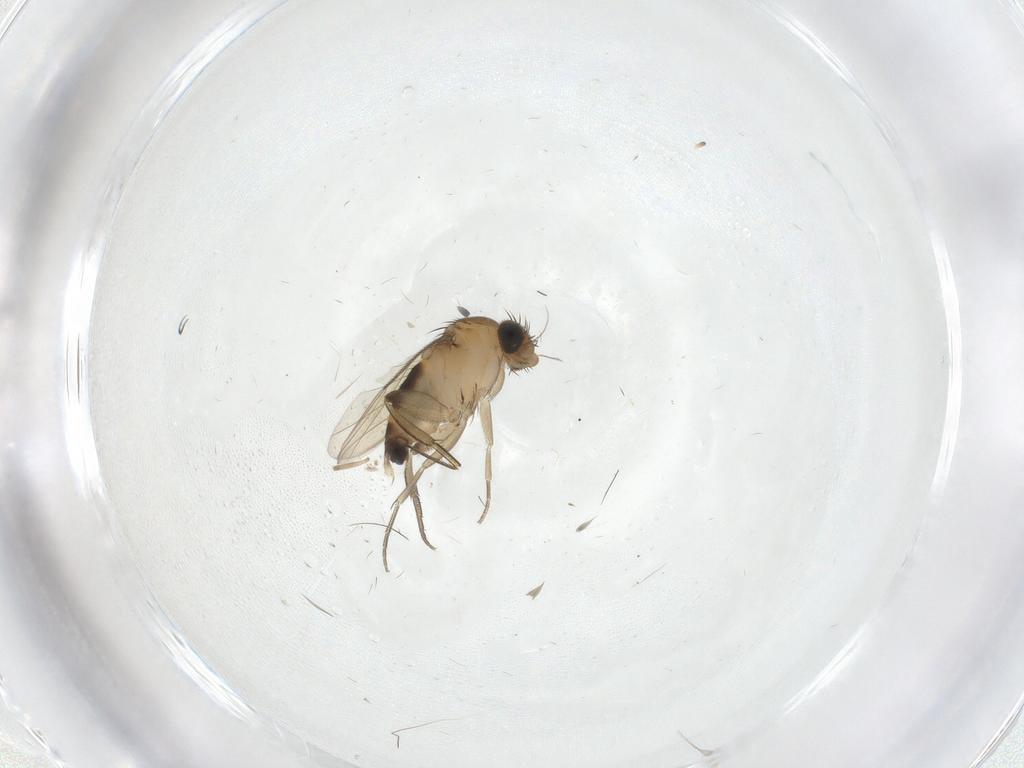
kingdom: Animalia
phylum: Arthropoda
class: Insecta
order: Diptera
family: Phoridae
